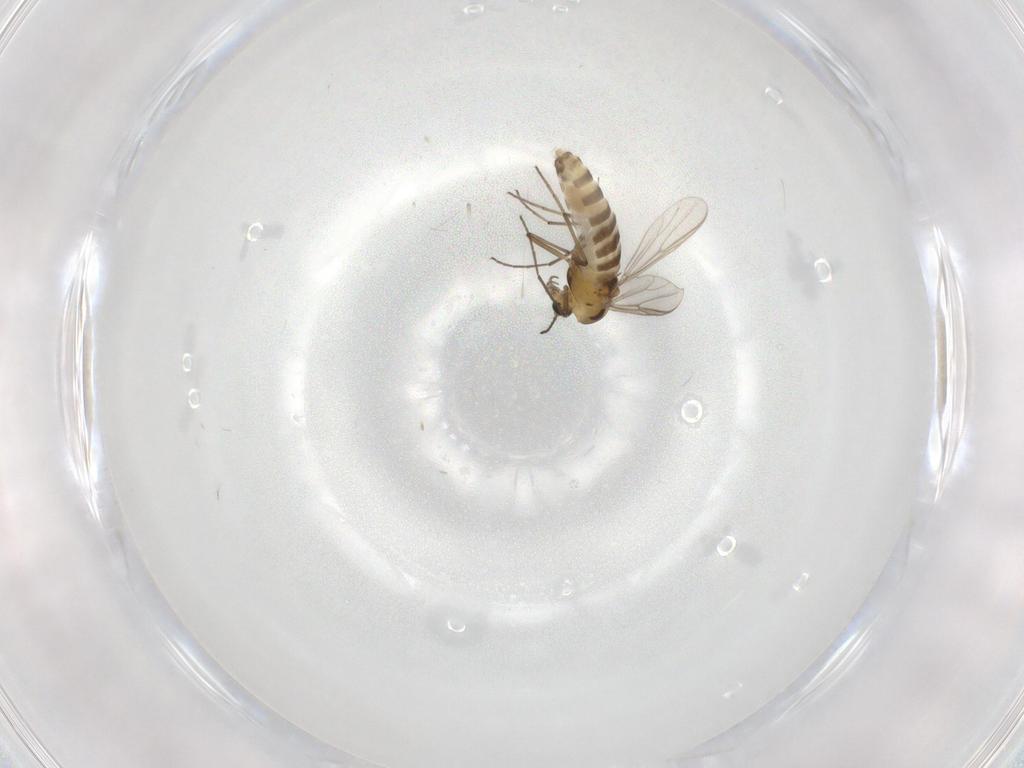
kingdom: Animalia
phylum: Arthropoda
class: Insecta
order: Diptera
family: Chironomidae
